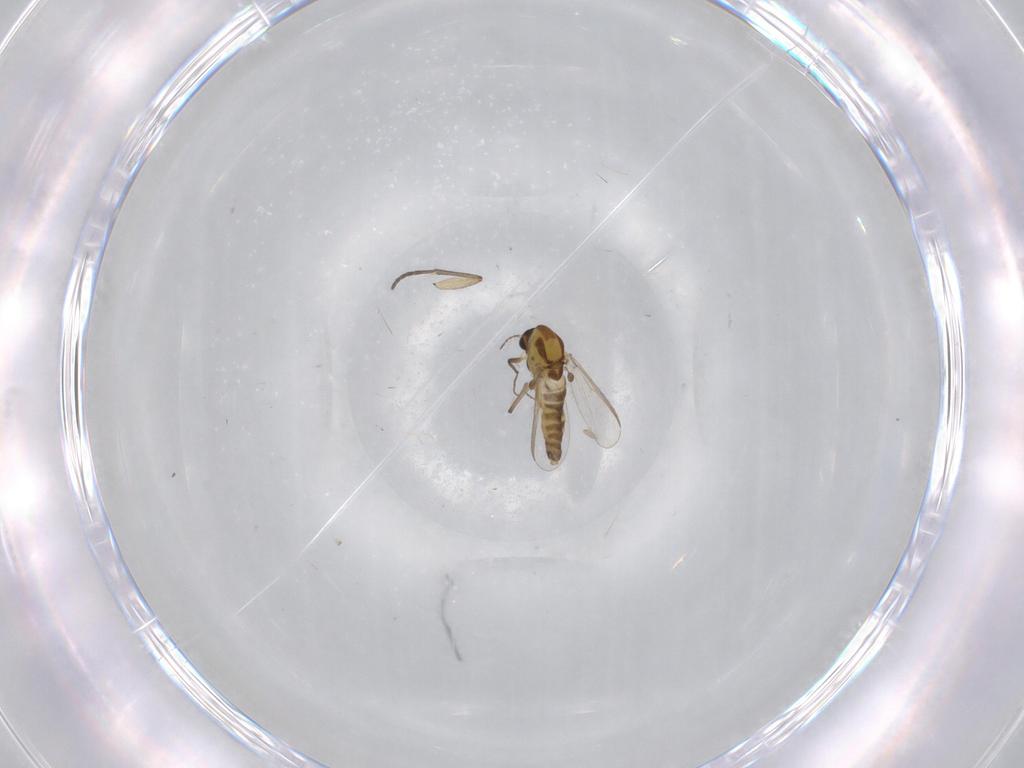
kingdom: Animalia
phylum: Arthropoda
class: Insecta
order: Diptera
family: Chironomidae
